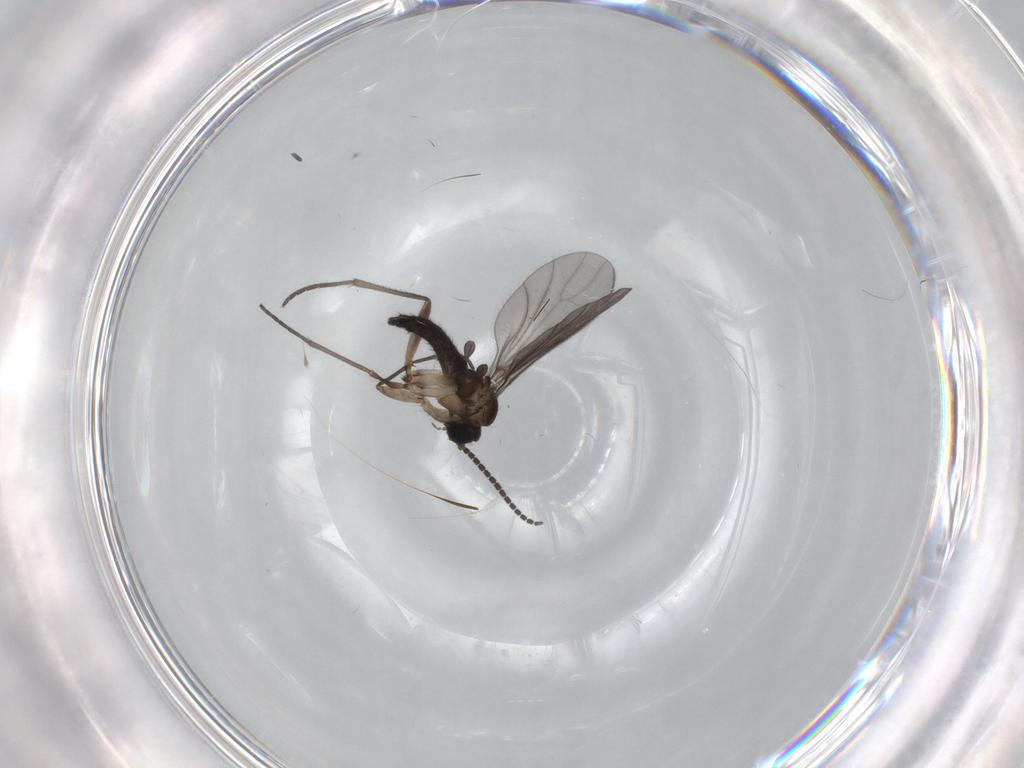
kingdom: Animalia
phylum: Arthropoda
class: Insecta
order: Diptera
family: Sciaridae
